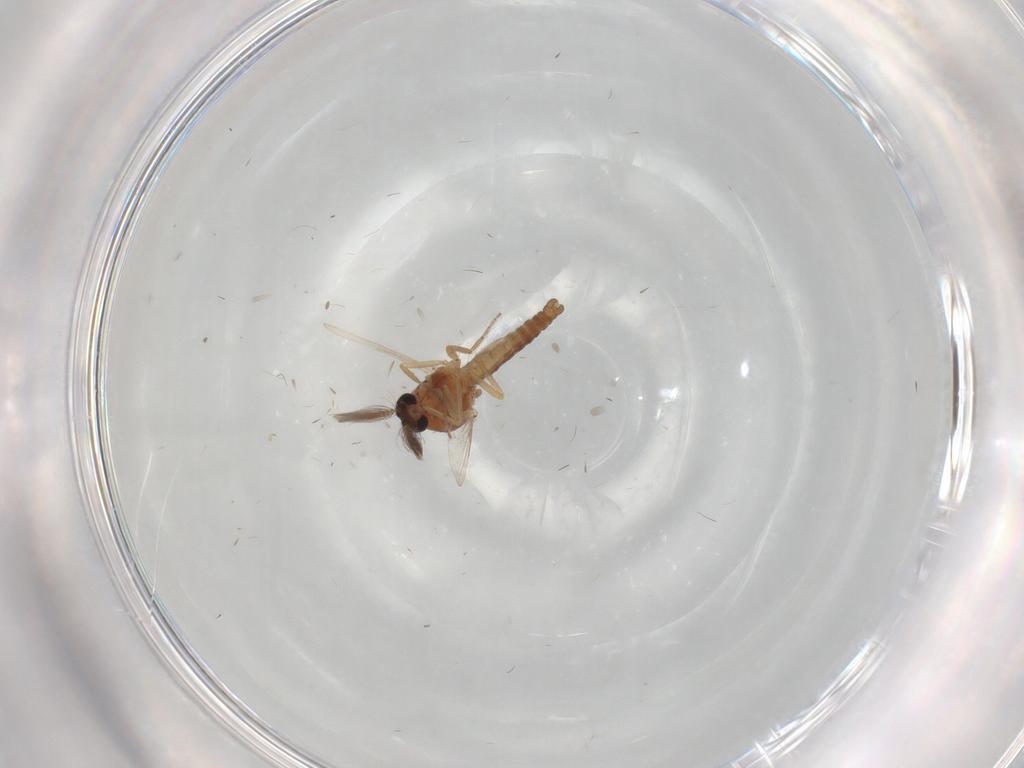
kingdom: Animalia
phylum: Arthropoda
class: Insecta
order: Diptera
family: Ceratopogonidae
